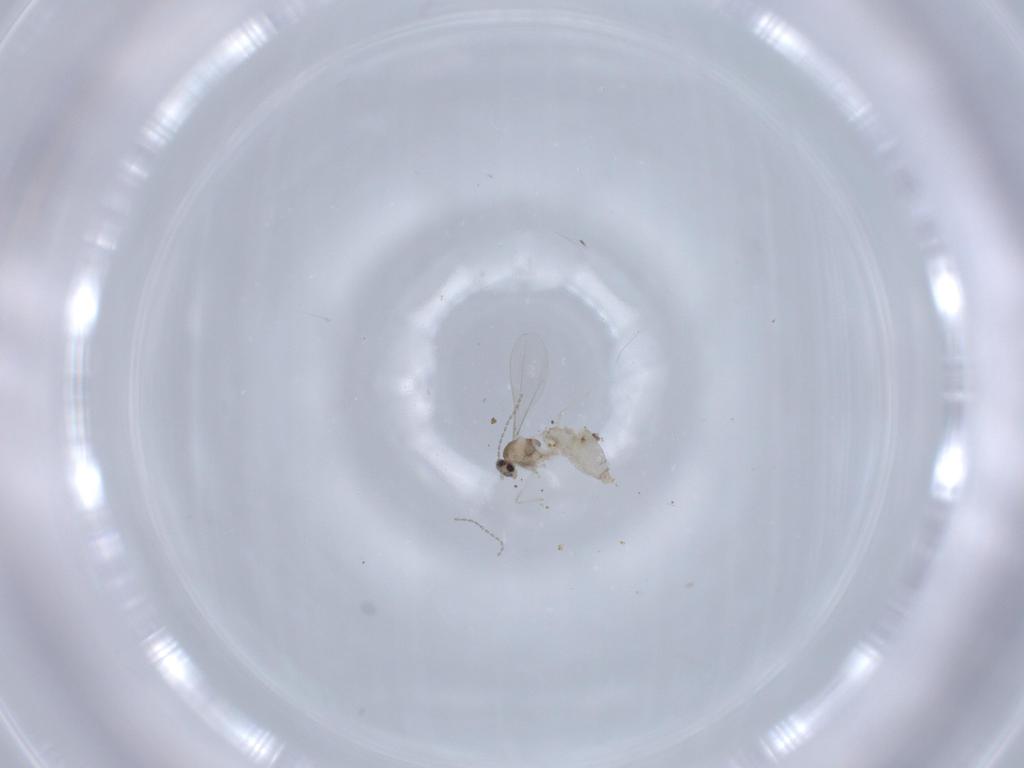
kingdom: Animalia
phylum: Arthropoda
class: Insecta
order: Diptera
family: Cecidomyiidae
